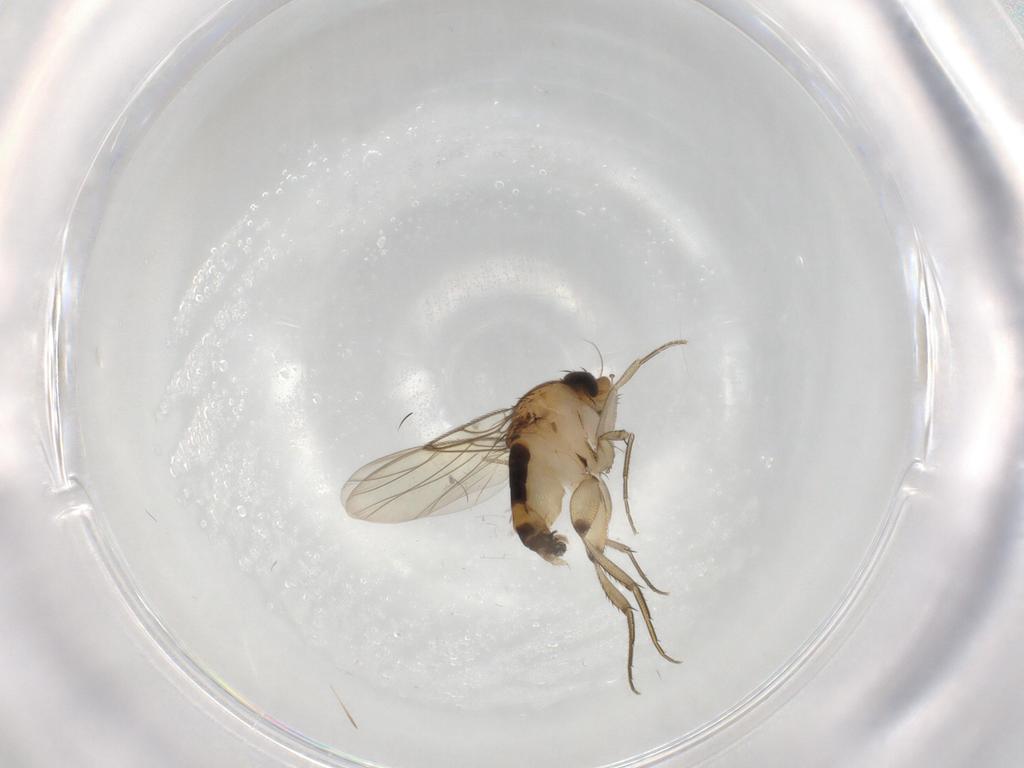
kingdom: Animalia
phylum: Arthropoda
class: Insecta
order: Diptera
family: Phoridae
